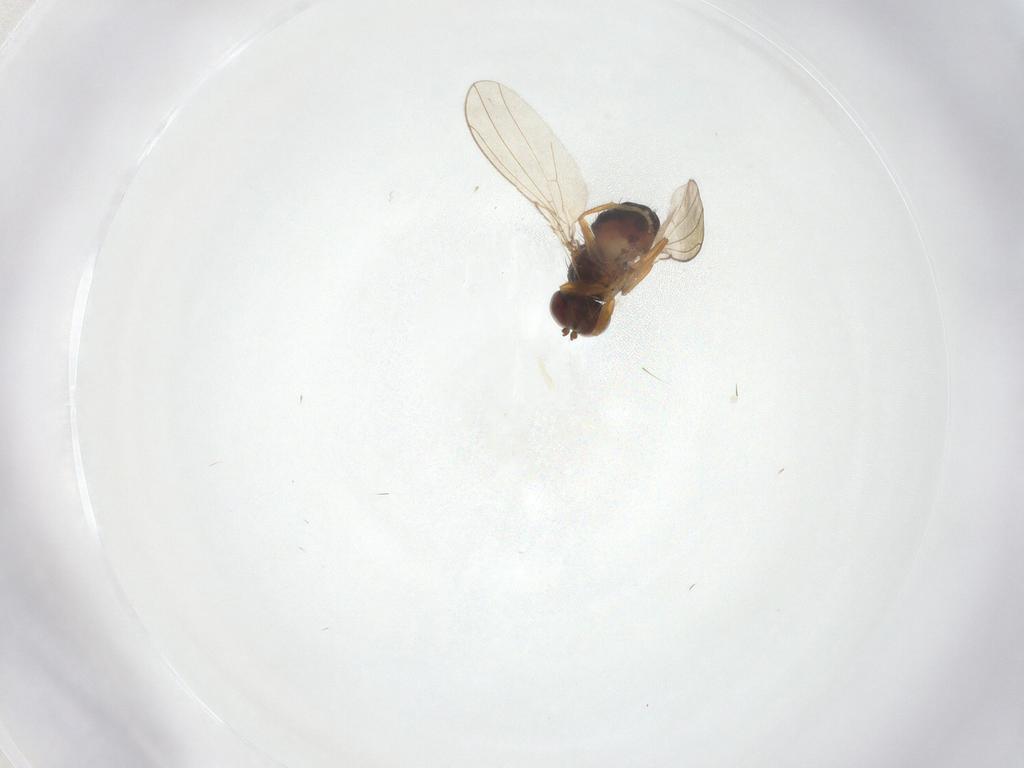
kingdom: Animalia
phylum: Arthropoda
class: Insecta
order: Diptera
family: Ephydridae
